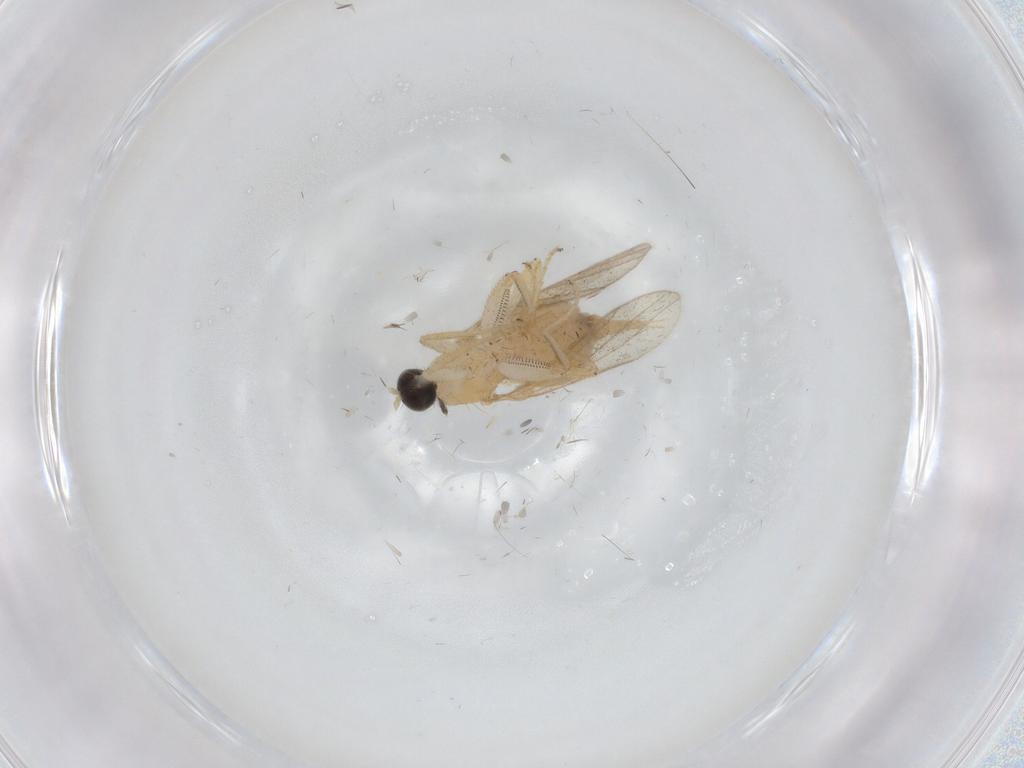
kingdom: Animalia
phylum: Arthropoda
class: Insecta
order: Diptera
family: Hybotidae
